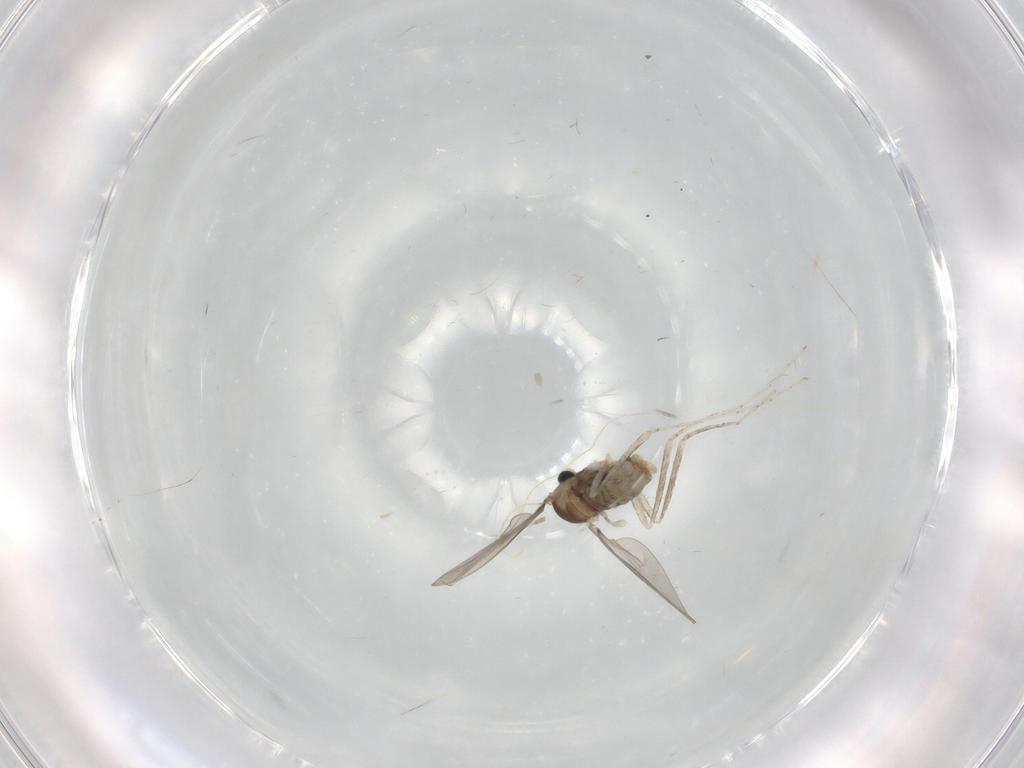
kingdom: Animalia
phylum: Arthropoda
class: Insecta
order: Diptera
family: Cecidomyiidae
